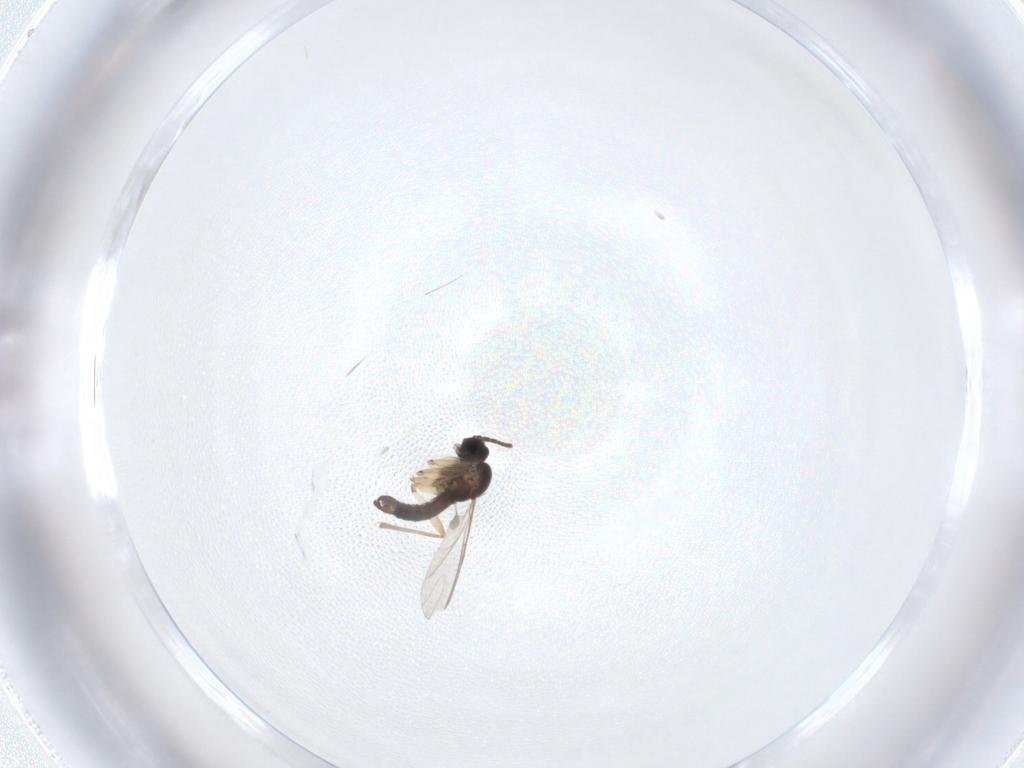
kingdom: Animalia
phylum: Arthropoda
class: Insecta
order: Diptera
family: Sciaridae
